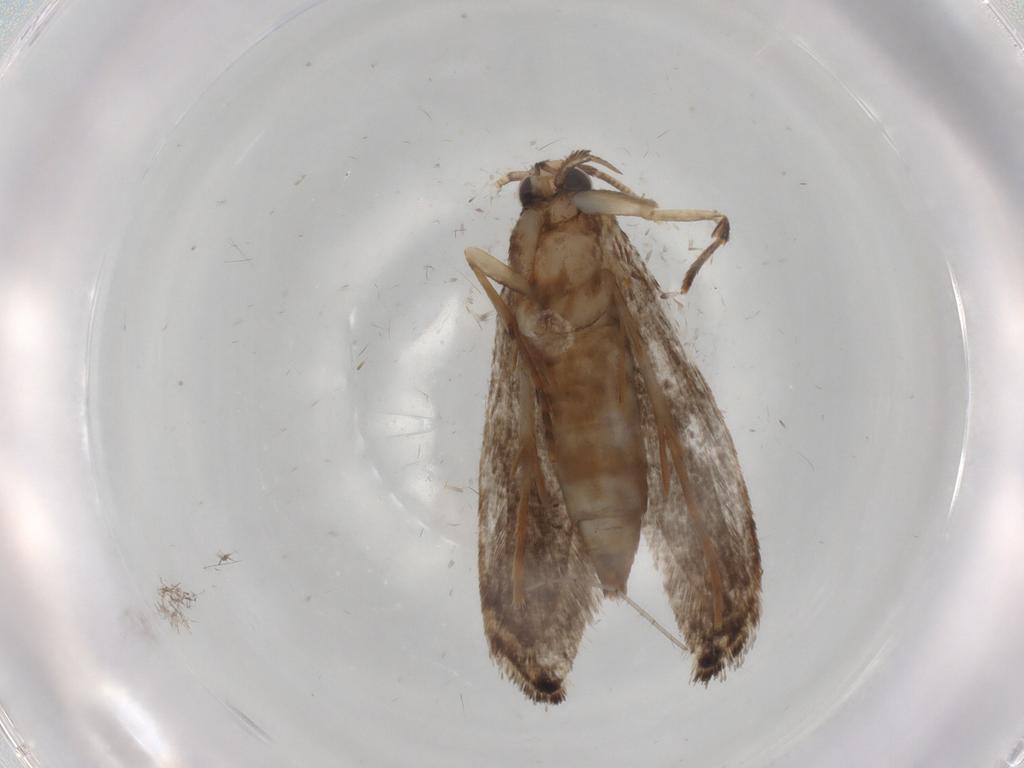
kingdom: Animalia
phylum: Arthropoda
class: Insecta
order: Lepidoptera
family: Tineidae
